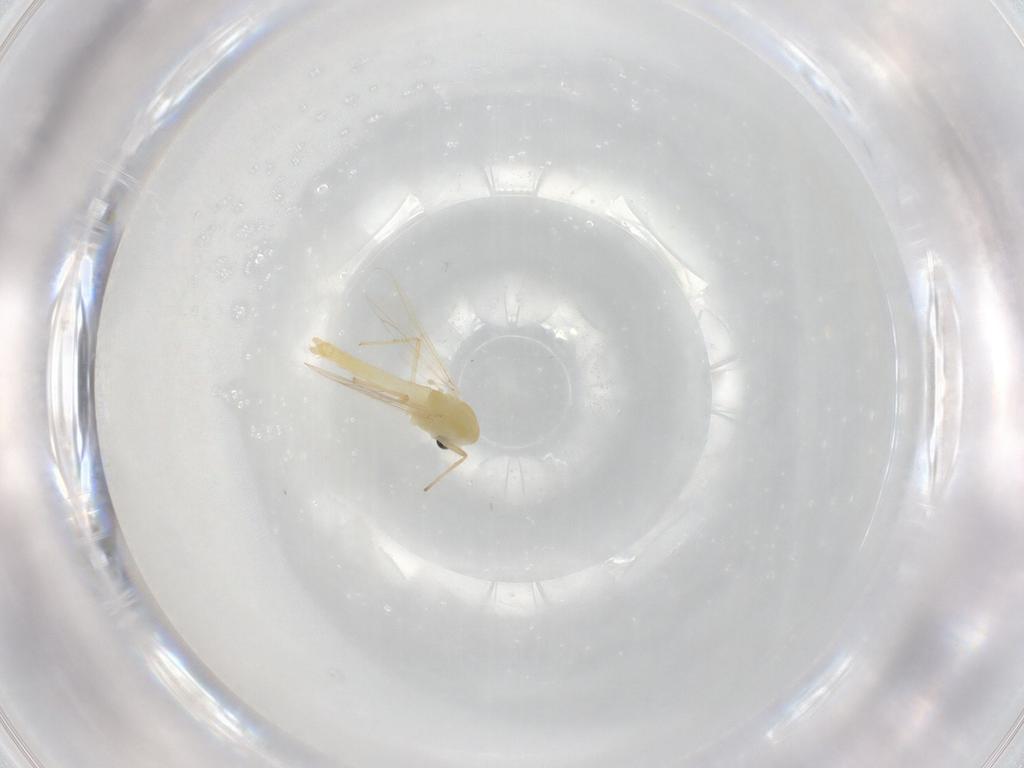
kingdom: Animalia
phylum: Arthropoda
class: Insecta
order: Diptera
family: Chironomidae
